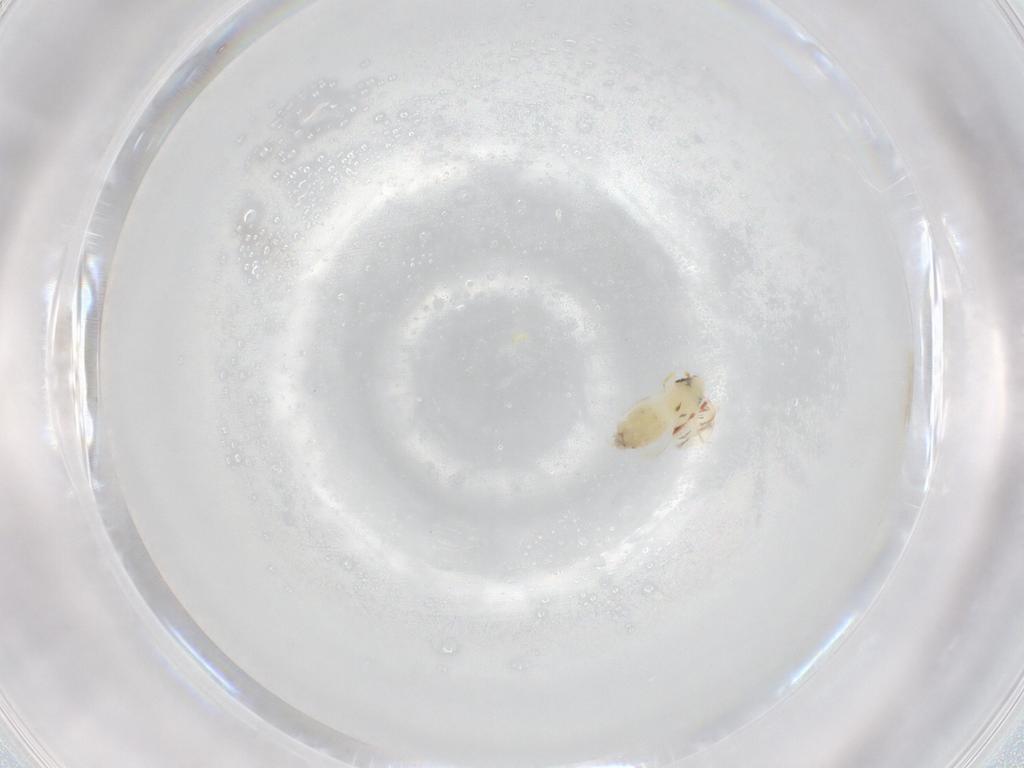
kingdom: Animalia
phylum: Arthropoda
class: Insecta
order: Hemiptera
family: Aleyrodidae
